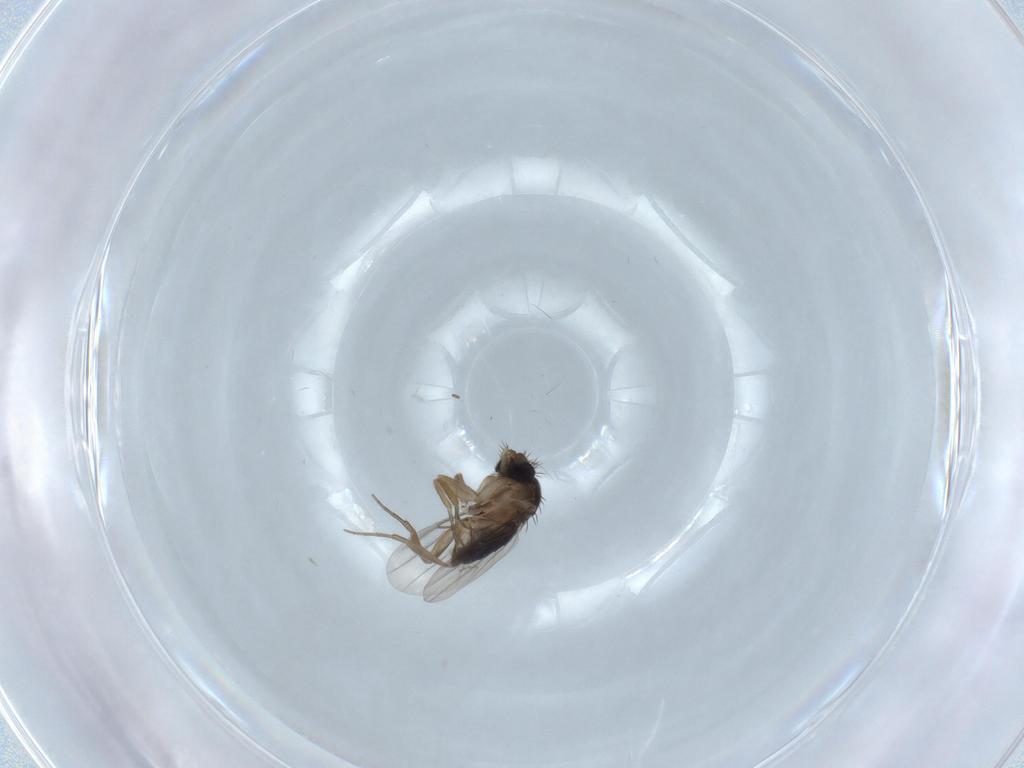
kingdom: Animalia
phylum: Arthropoda
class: Insecta
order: Diptera
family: Phoridae
